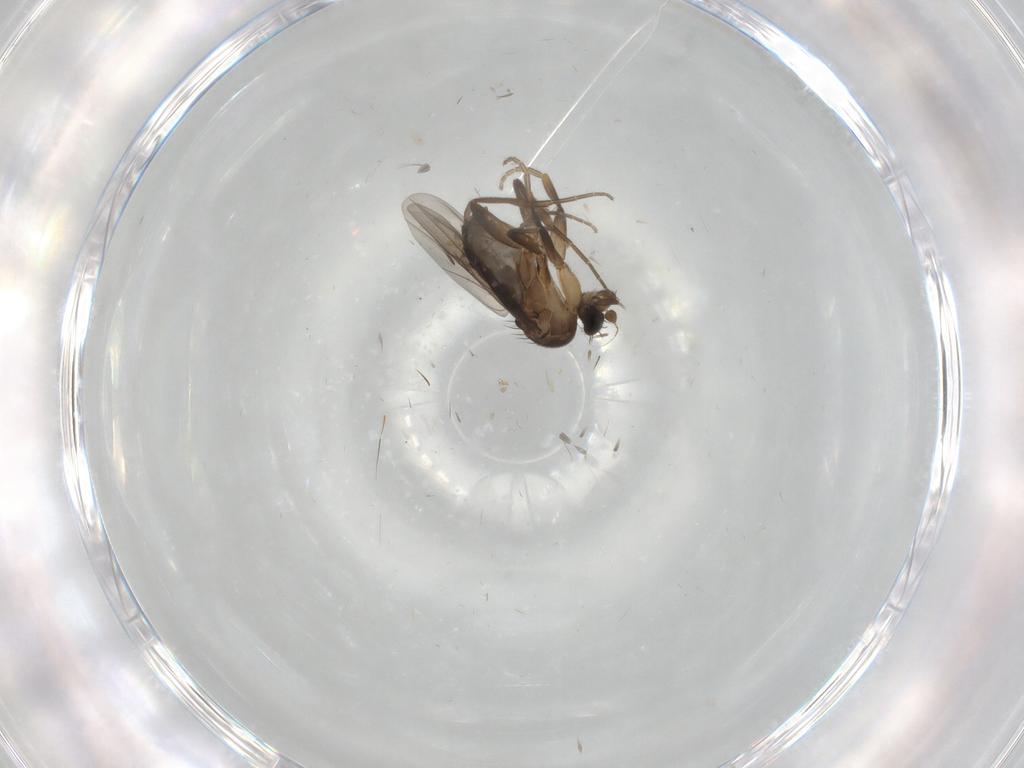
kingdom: Animalia
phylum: Arthropoda
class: Insecta
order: Diptera
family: Phoridae
